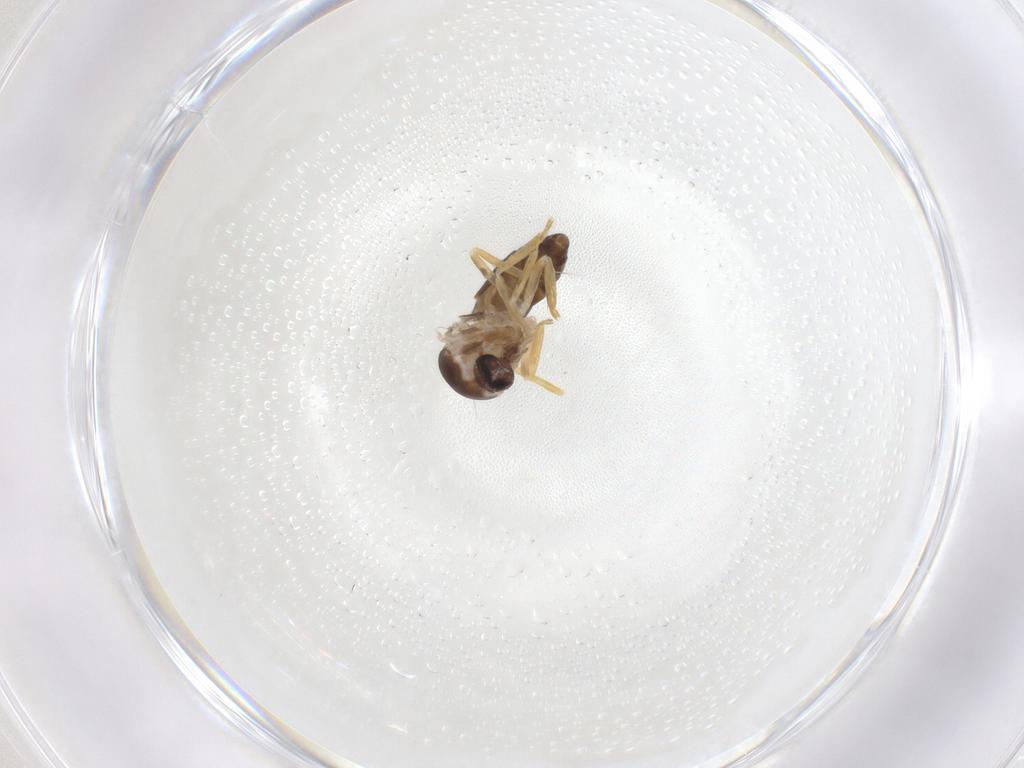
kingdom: Animalia
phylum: Arthropoda
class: Insecta
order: Diptera
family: Ceratopogonidae
